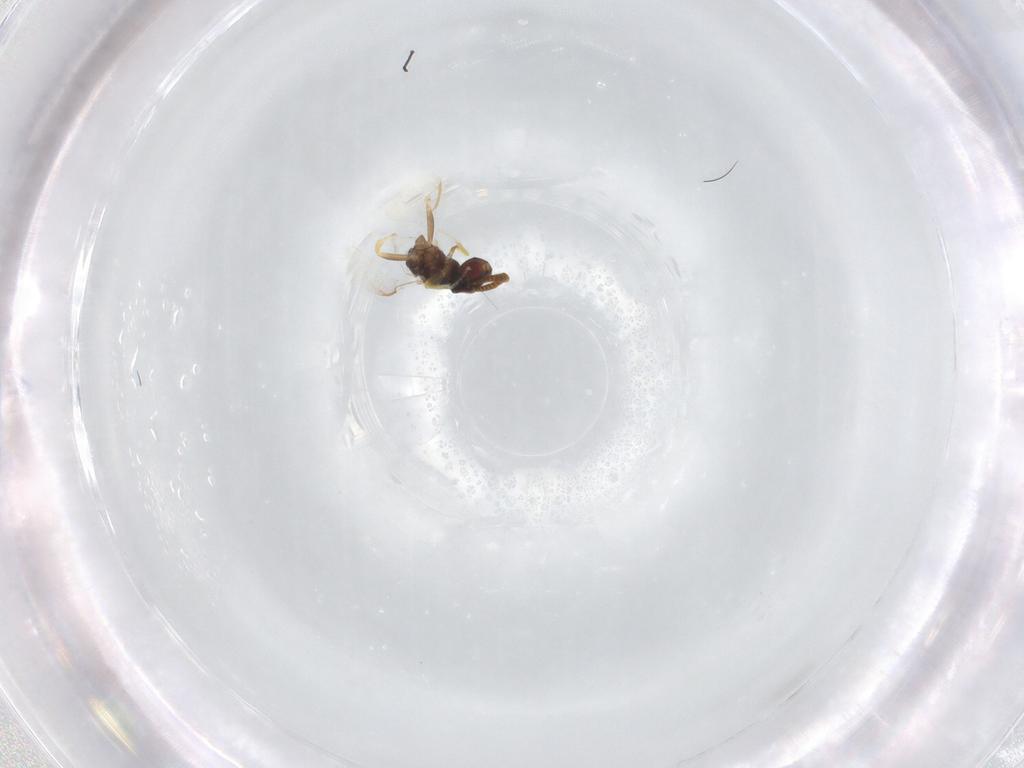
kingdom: Animalia
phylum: Arthropoda
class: Insecta
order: Hymenoptera
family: Torymidae
